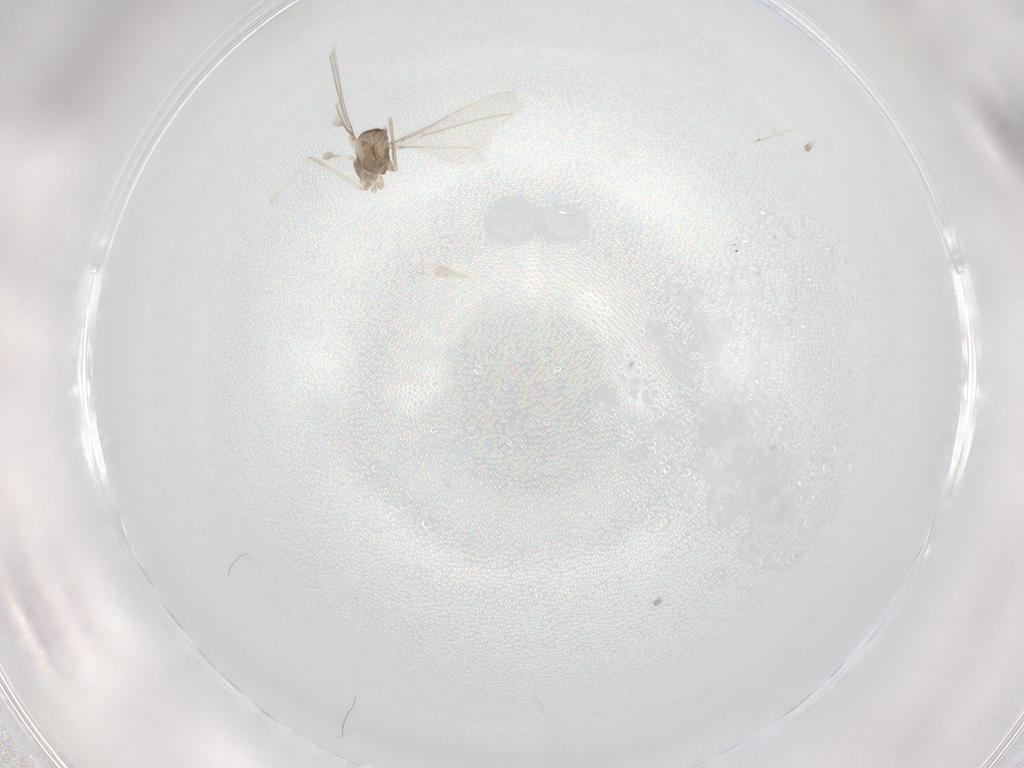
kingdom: Animalia
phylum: Arthropoda
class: Insecta
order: Diptera
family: Cecidomyiidae
